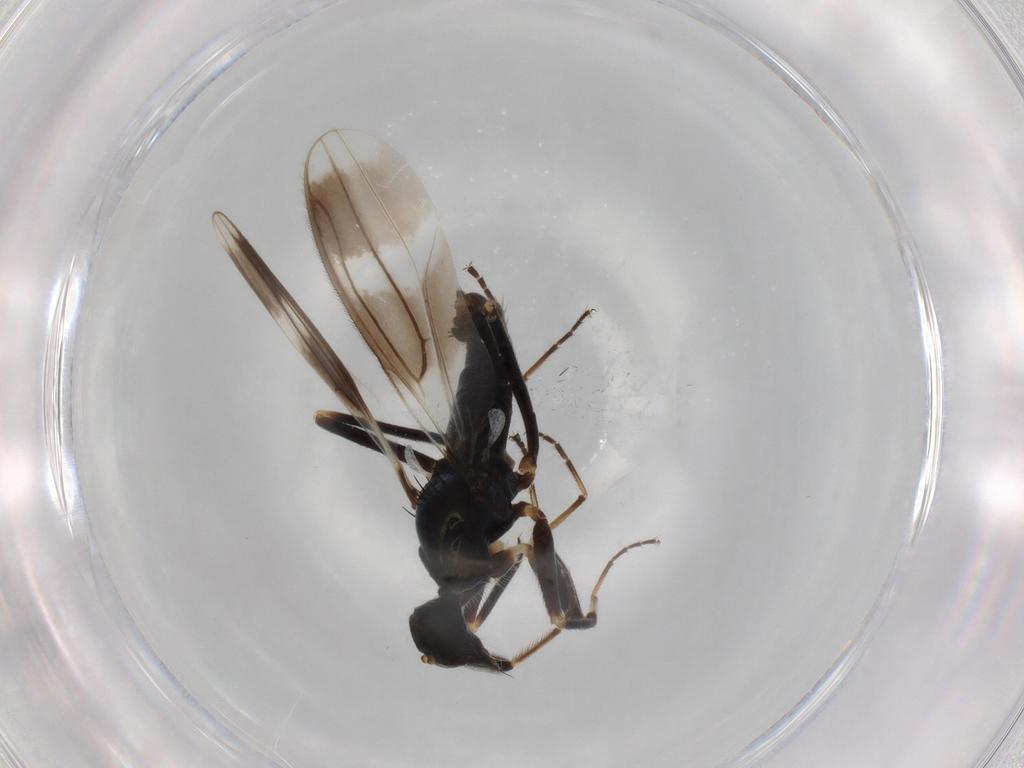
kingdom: Animalia
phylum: Arthropoda
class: Insecta
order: Diptera
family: Hybotidae
